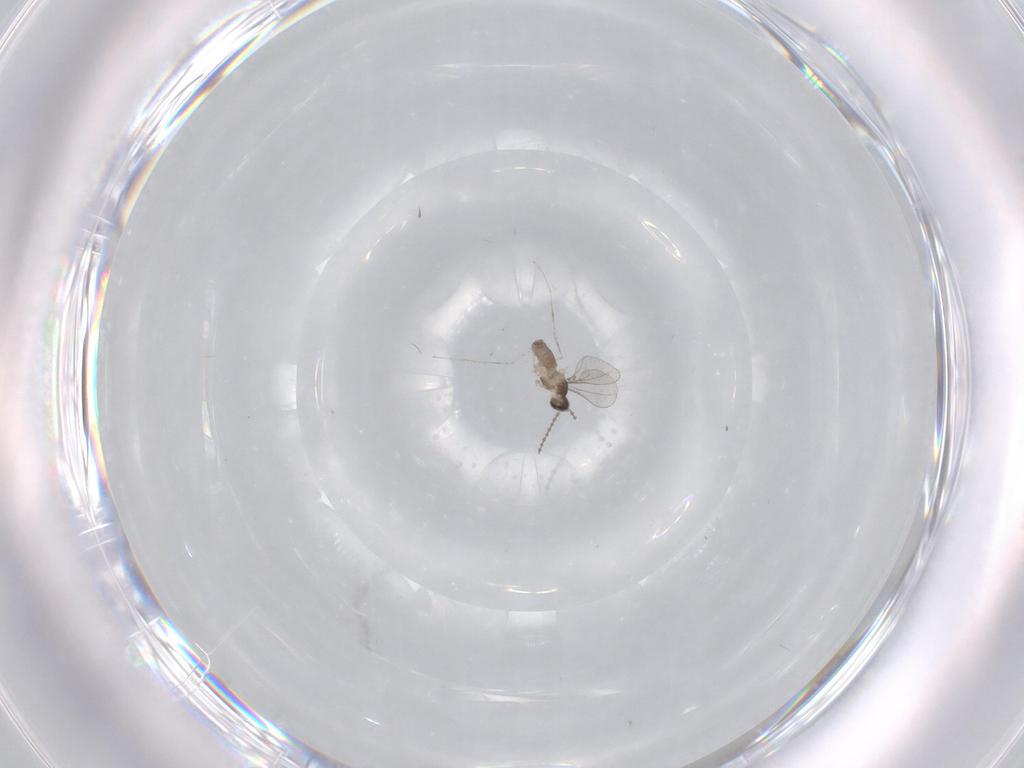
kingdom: Animalia
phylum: Arthropoda
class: Insecta
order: Diptera
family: Cecidomyiidae
